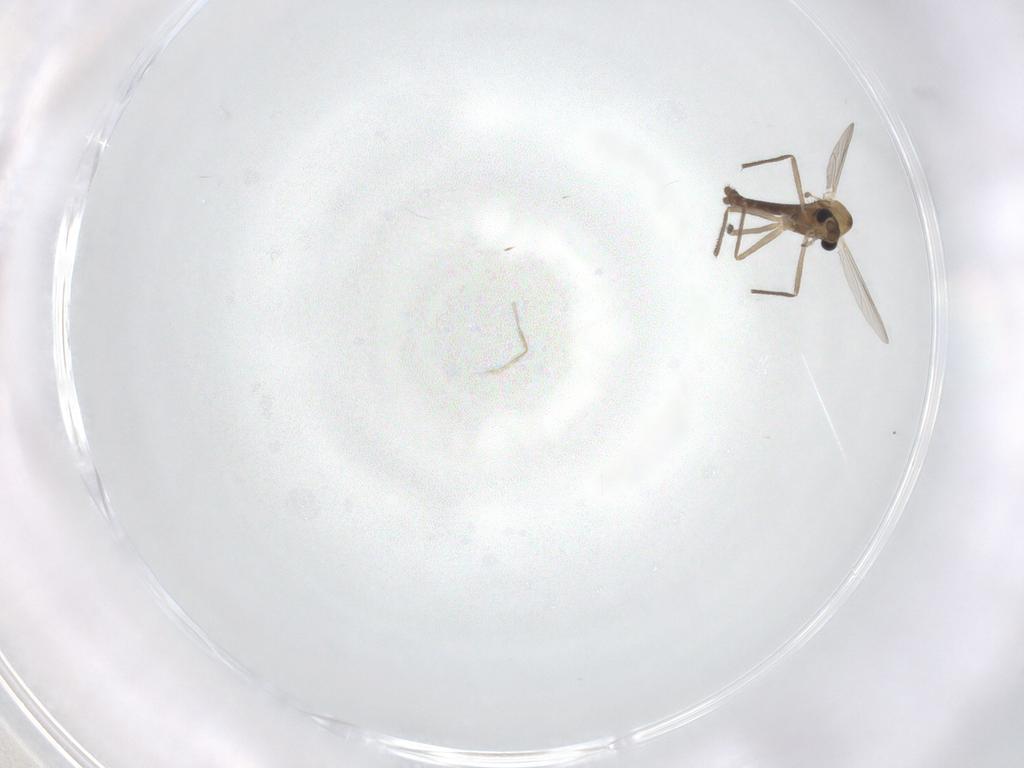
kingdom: Animalia
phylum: Arthropoda
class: Insecta
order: Diptera
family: Chironomidae
